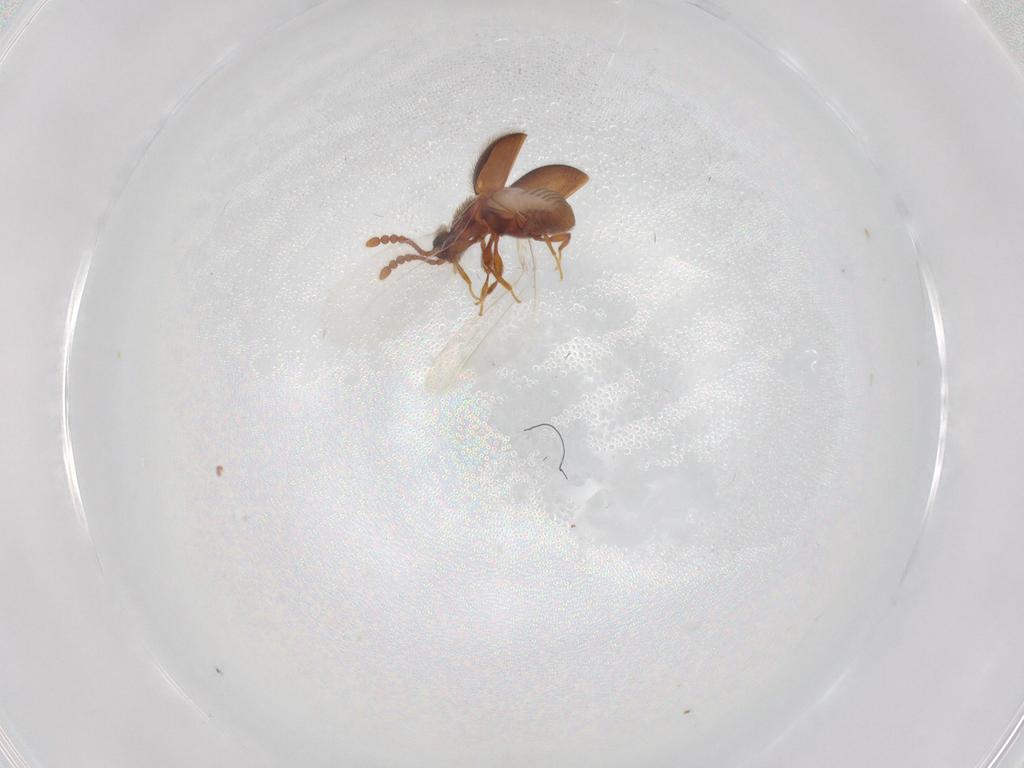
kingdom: Animalia
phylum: Arthropoda
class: Insecta
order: Coleoptera
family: Staphylinidae
